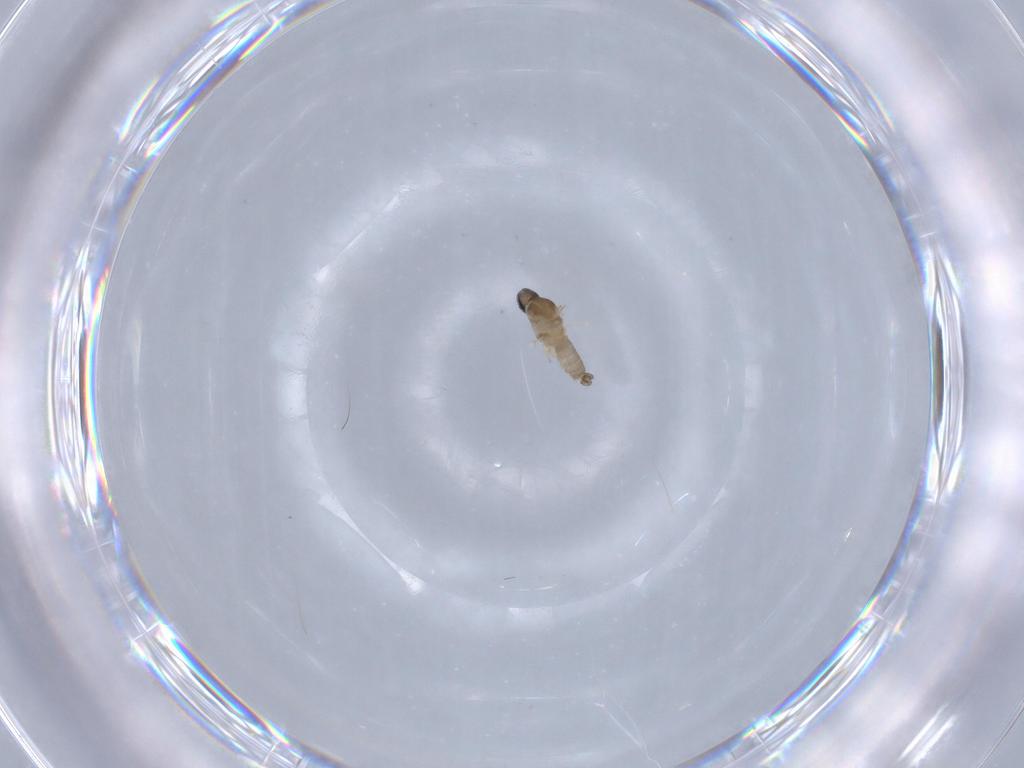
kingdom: Animalia
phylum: Arthropoda
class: Insecta
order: Diptera
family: Cecidomyiidae
